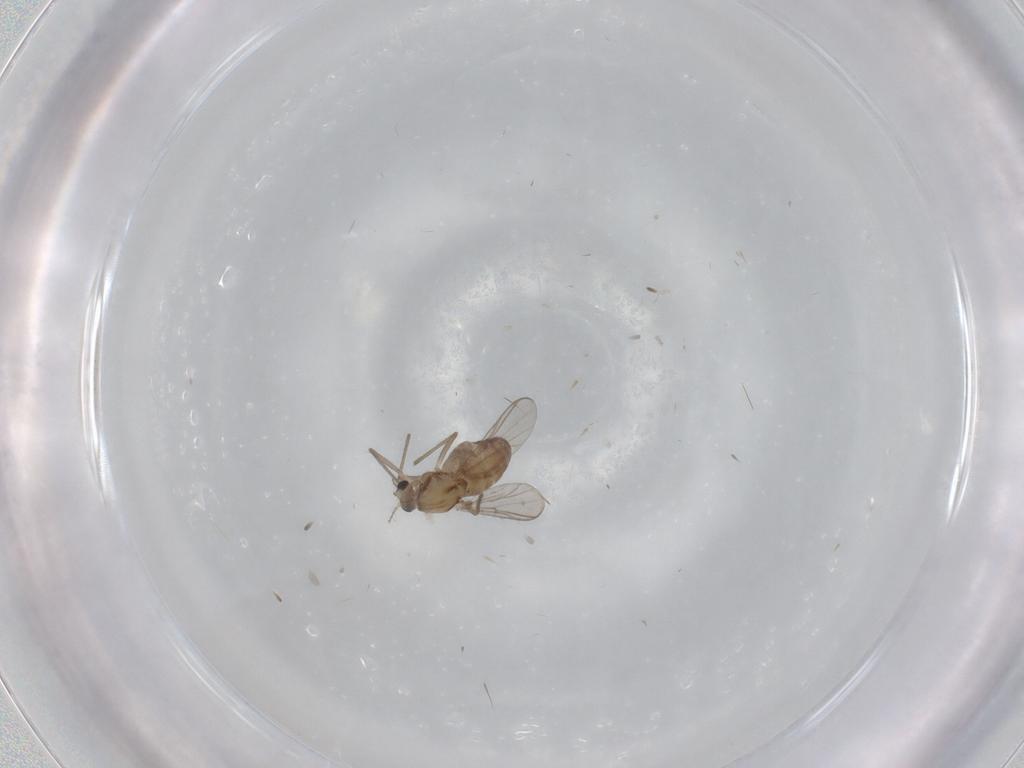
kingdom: Animalia
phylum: Arthropoda
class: Insecta
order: Diptera
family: Chironomidae
